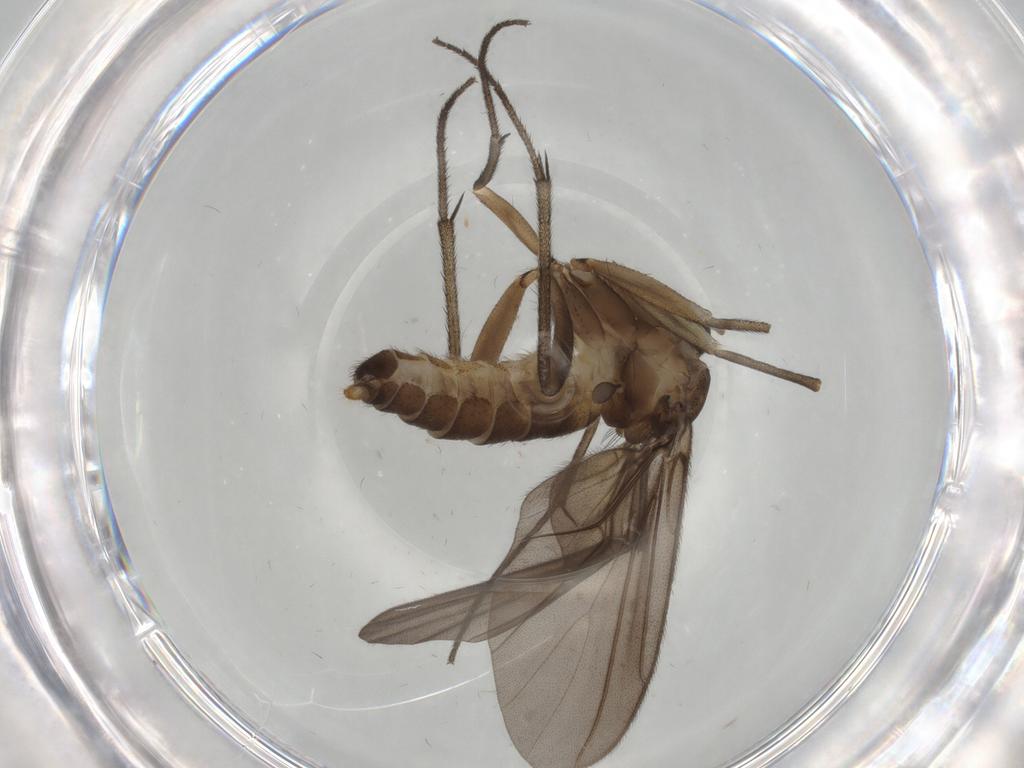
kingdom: Animalia
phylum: Arthropoda
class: Insecta
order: Diptera
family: Diadocidiidae
